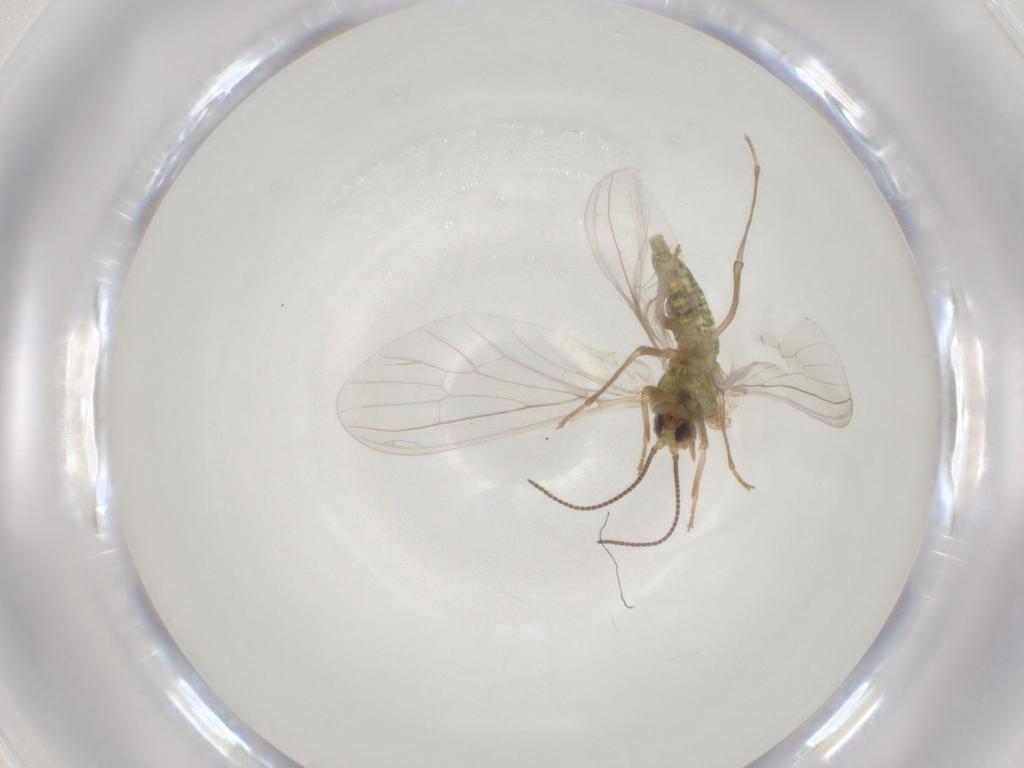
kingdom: Animalia
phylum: Arthropoda
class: Insecta
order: Neuroptera
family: Coniopterygidae
